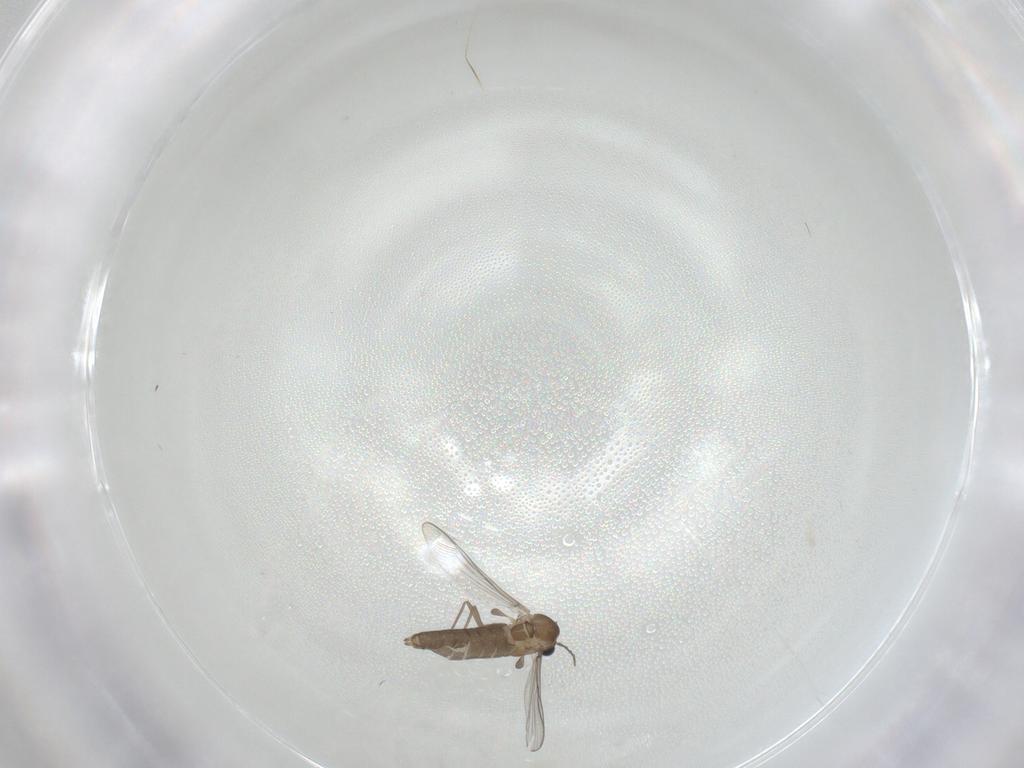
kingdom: Animalia
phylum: Arthropoda
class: Insecta
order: Diptera
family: Chironomidae
